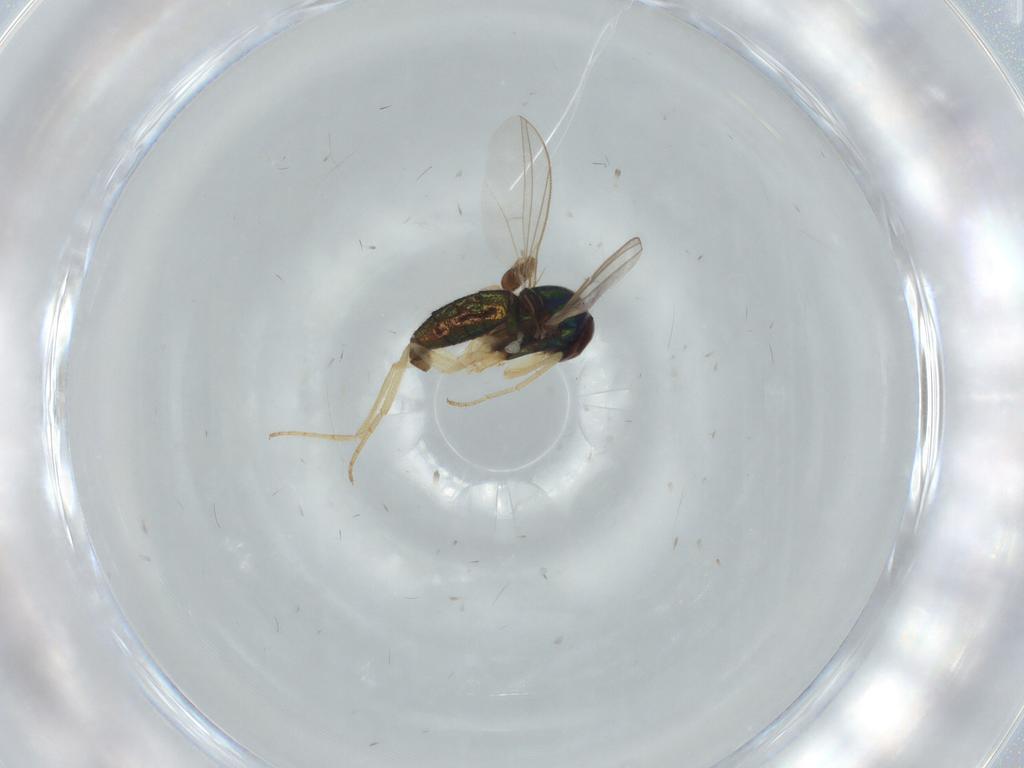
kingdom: Animalia
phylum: Arthropoda
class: Insecta
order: Diptera
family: Dolichopodidae
